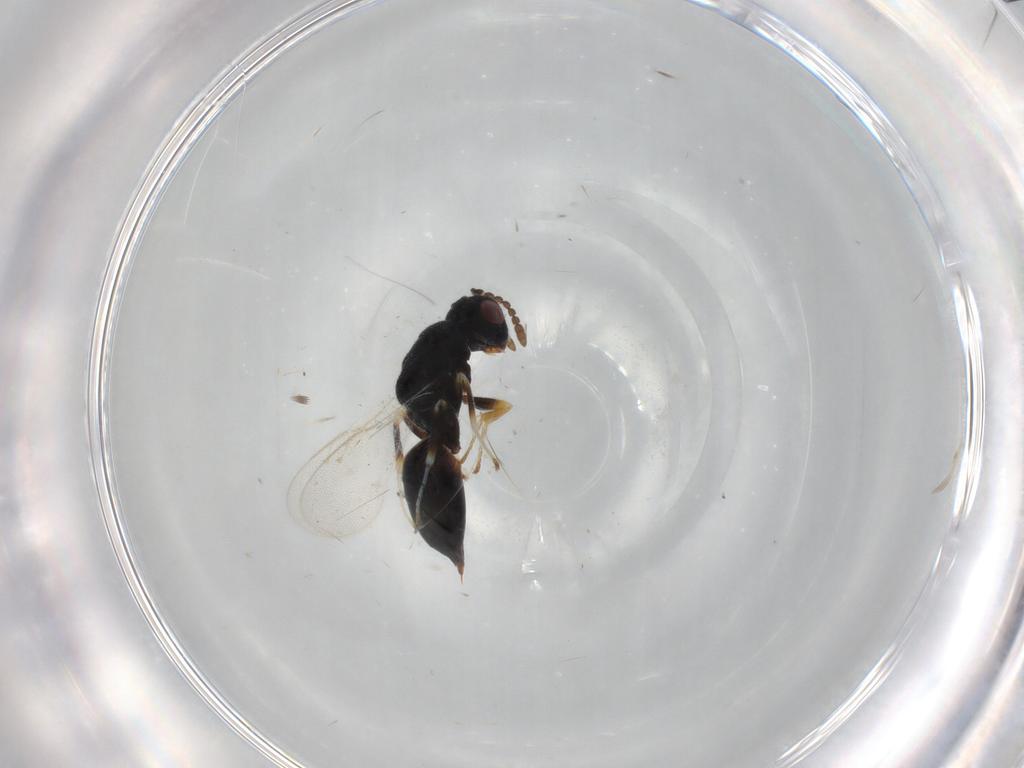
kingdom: Animalia
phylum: Arthropoda
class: Insecta
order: Hymenoptera
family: Eurytomidae
